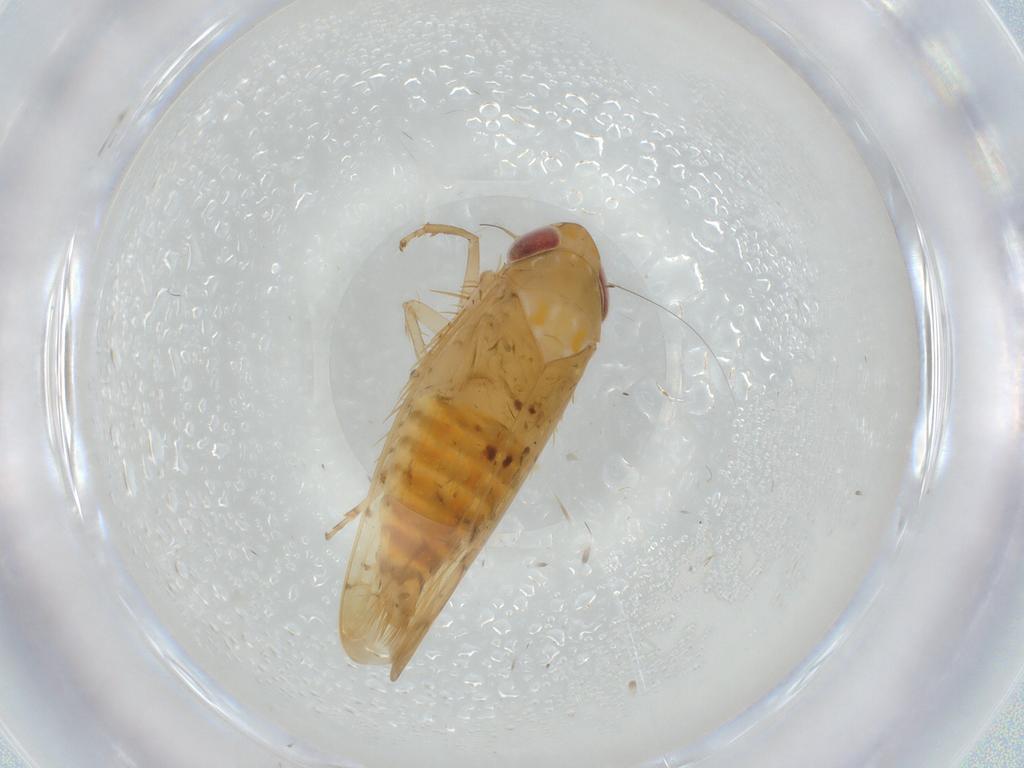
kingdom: Animalia
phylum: Arthropoda
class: Insecta
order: Hemiptera
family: Cicadellidae
